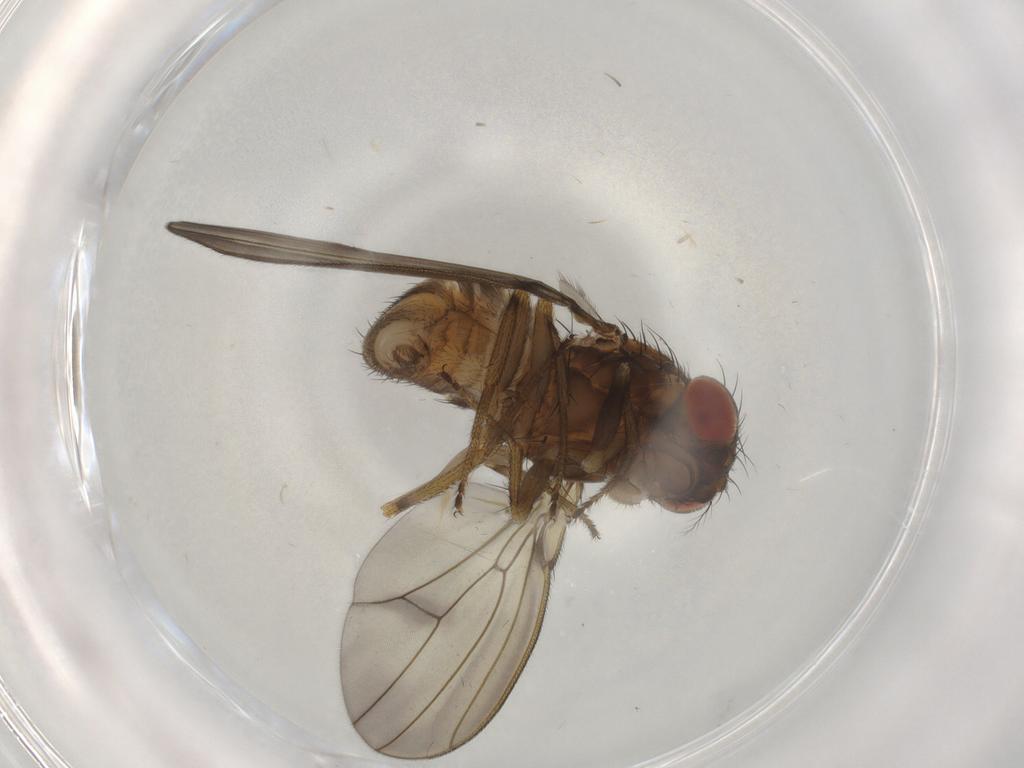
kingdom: Animalia
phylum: Arthropoda
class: Insecta
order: Diptera
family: Drosophilidae
